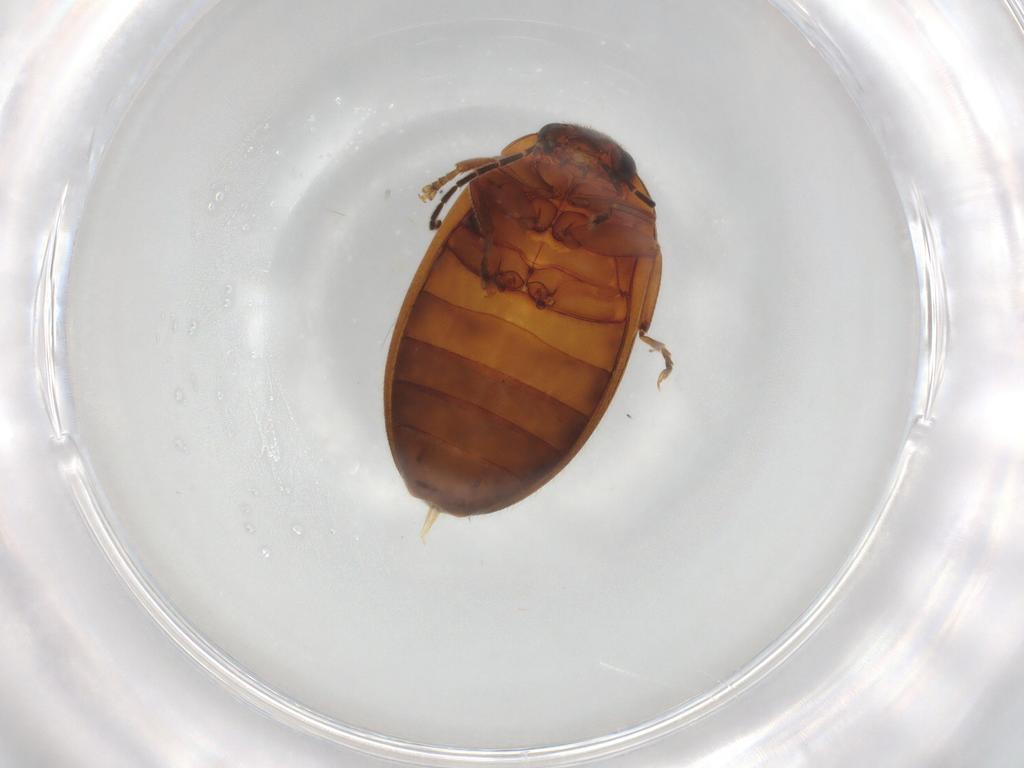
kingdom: Animalia
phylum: Arthropoda
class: Insecta
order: Coleoptera
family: Scirtidae
